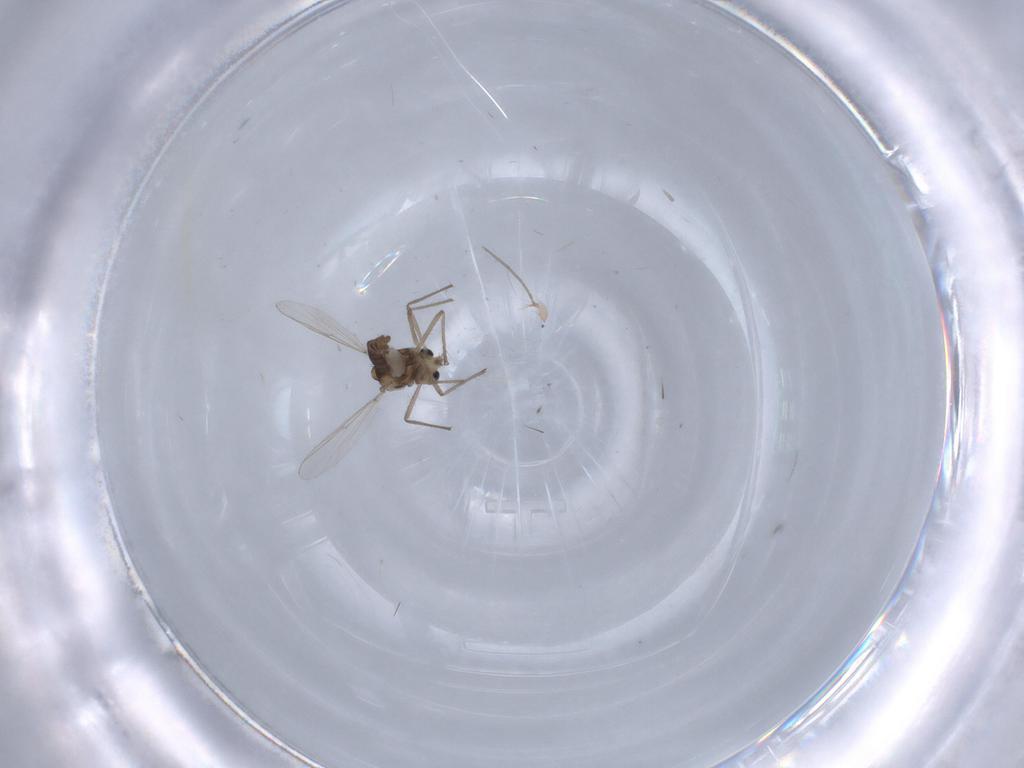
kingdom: Animalia
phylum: Arthropoda
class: Insecta
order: Diptera
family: Chironomidae
